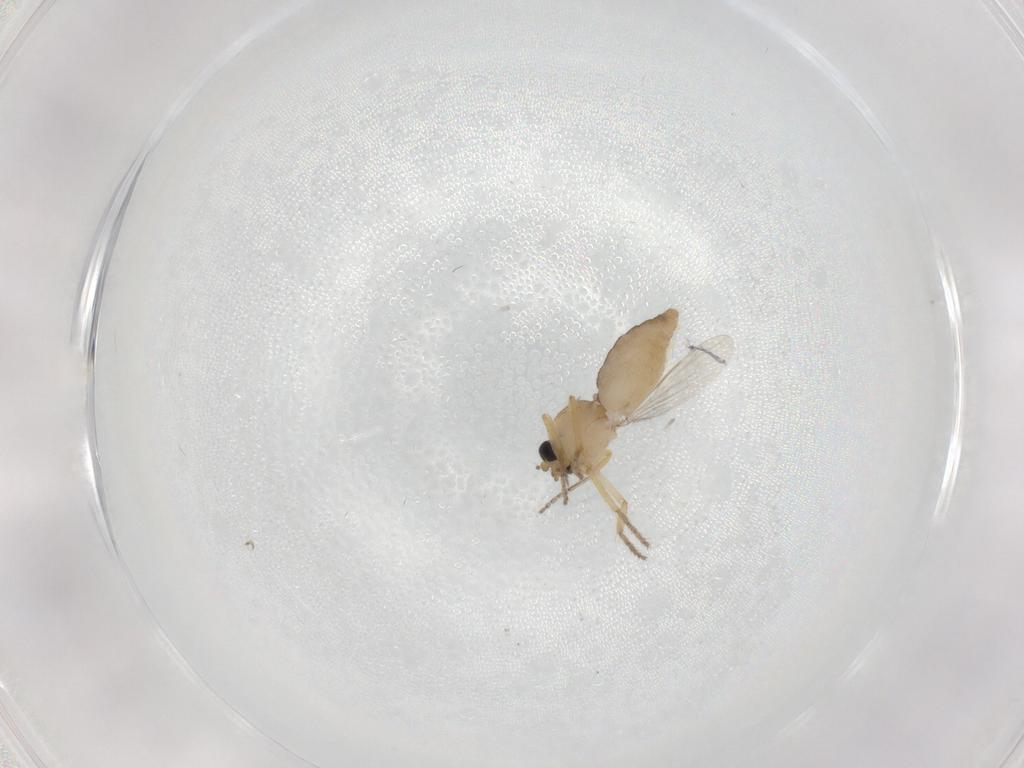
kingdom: Animalia
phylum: Arthropoda
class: Insecta
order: Diptera
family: Ceratopogonidae
